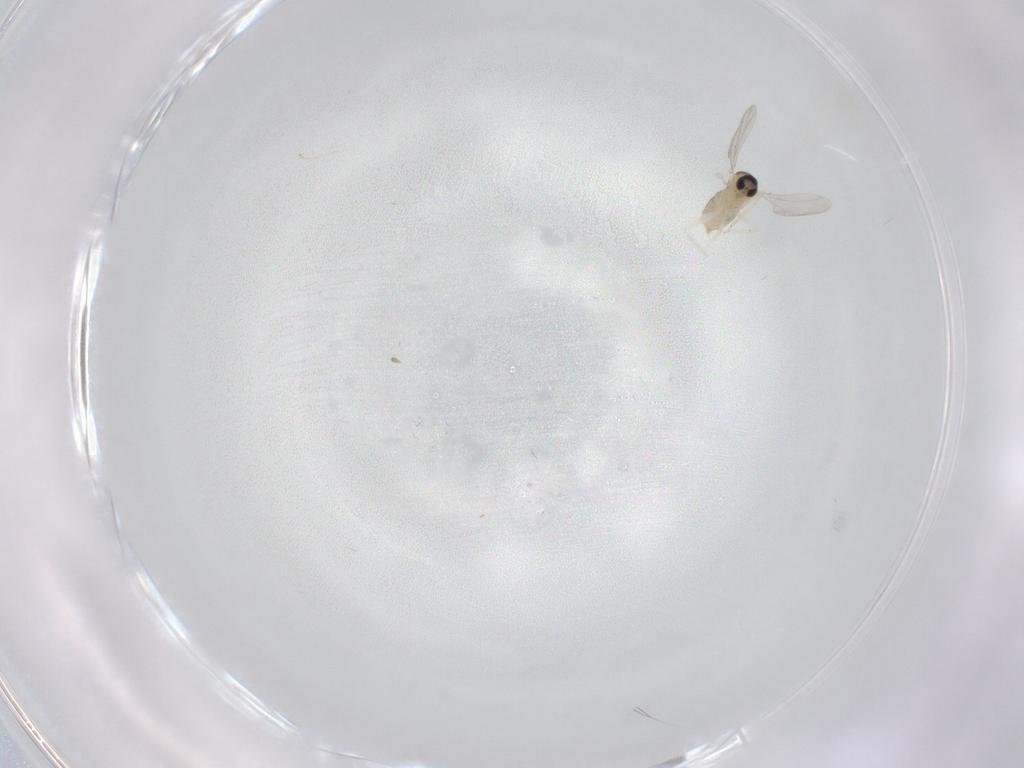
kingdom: Animalia
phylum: Arthropoda
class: Insecta
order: Diptera
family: Cecidomyiidae
